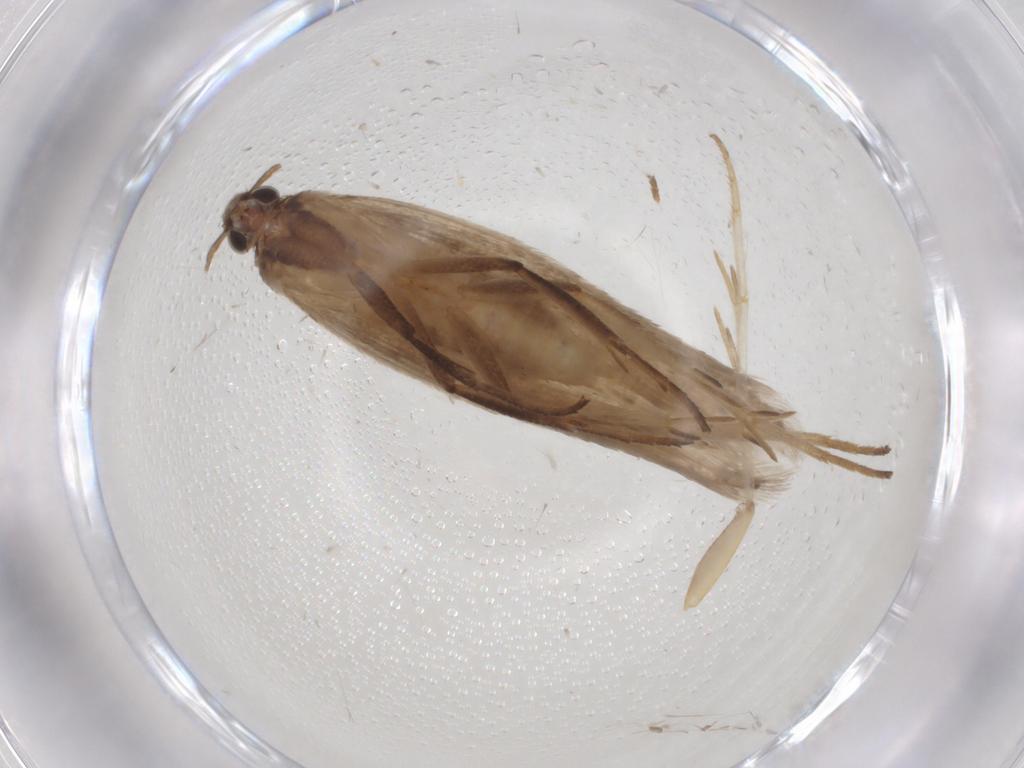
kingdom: Animalia
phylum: Arthropoda
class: Insecta
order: Lepidoptera
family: Gelechiidae
